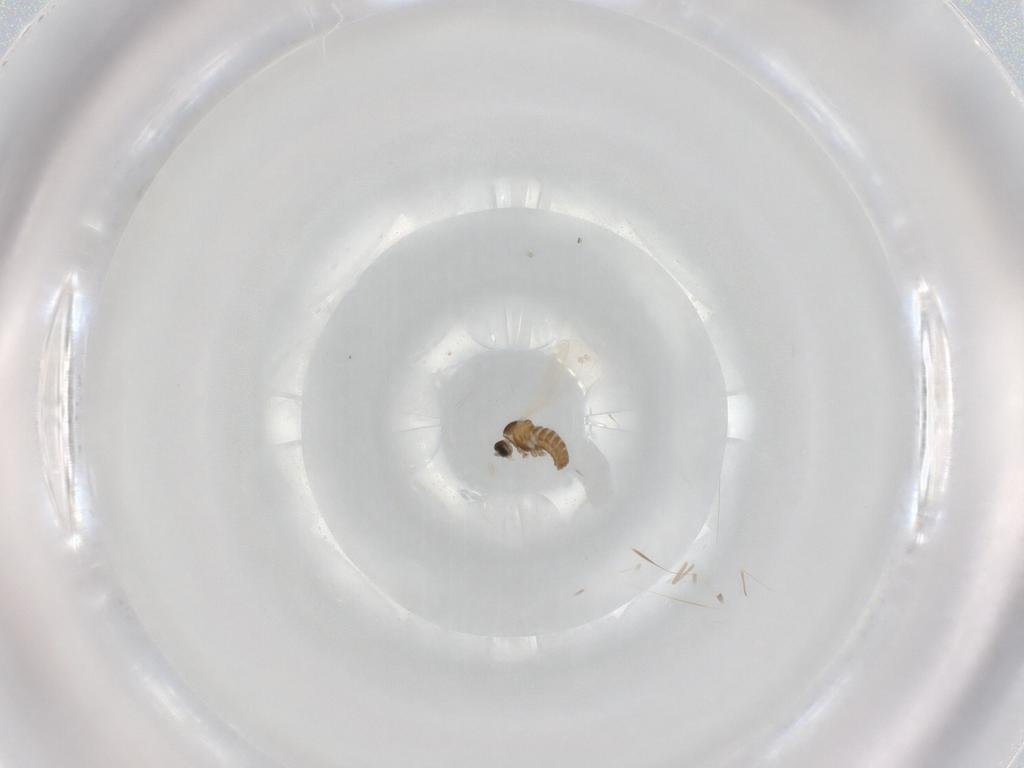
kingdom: Animalia
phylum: Arthropoda
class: Insecta
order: Diptera
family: Cecidomyiidae
